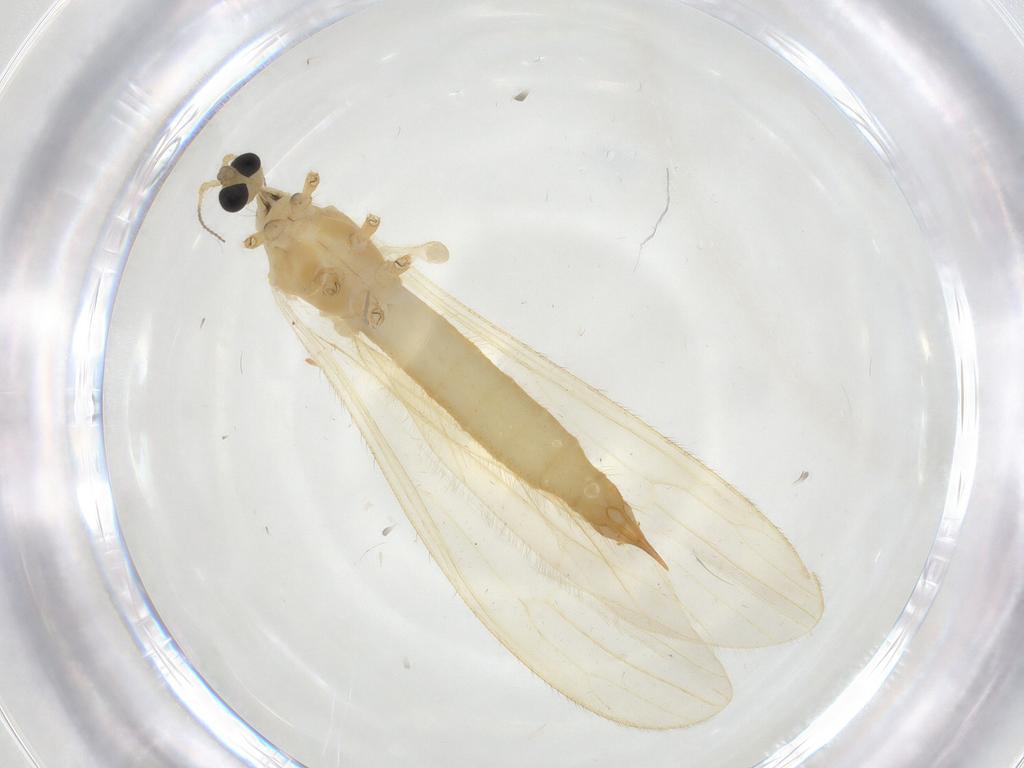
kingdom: Animalia
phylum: Arthropoda
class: Insecta
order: Diptera
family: Limoniidae
